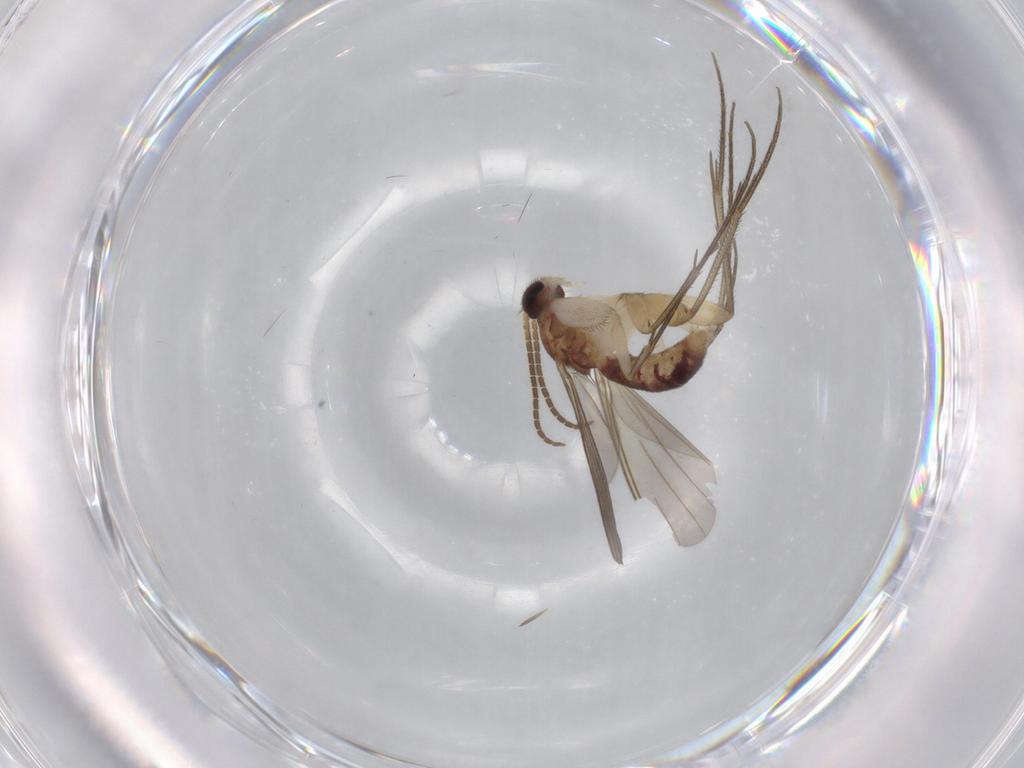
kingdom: Animalia
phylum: Arthropoda
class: Insecta
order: Diptera
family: Mycetophilidae
